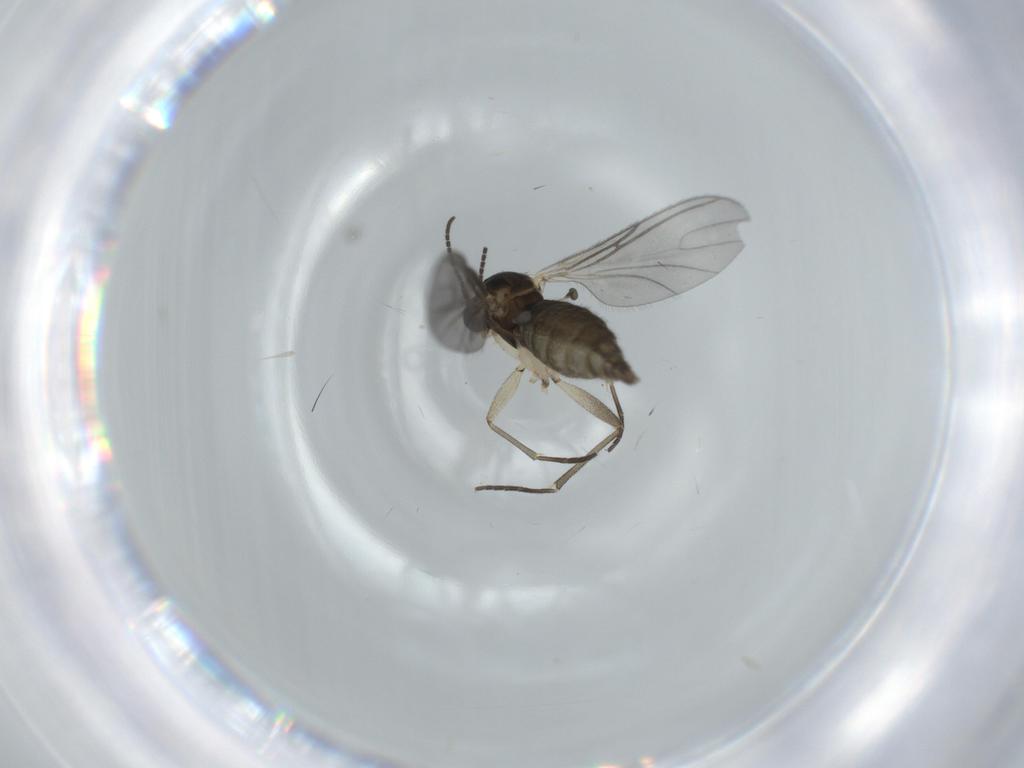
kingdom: Animalia
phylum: Arthropoda
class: Insecta
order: Diptera
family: Sciaridae
